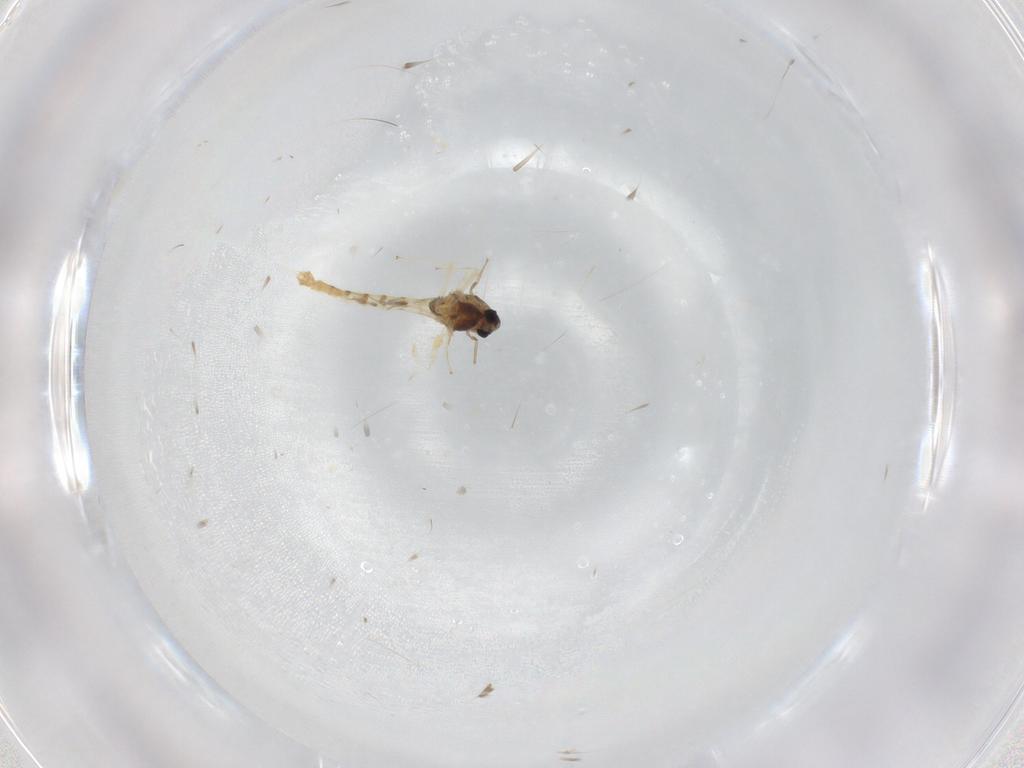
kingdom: Animalia
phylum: Arthropoda
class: Insecta
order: Diptera
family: Chironomidae
